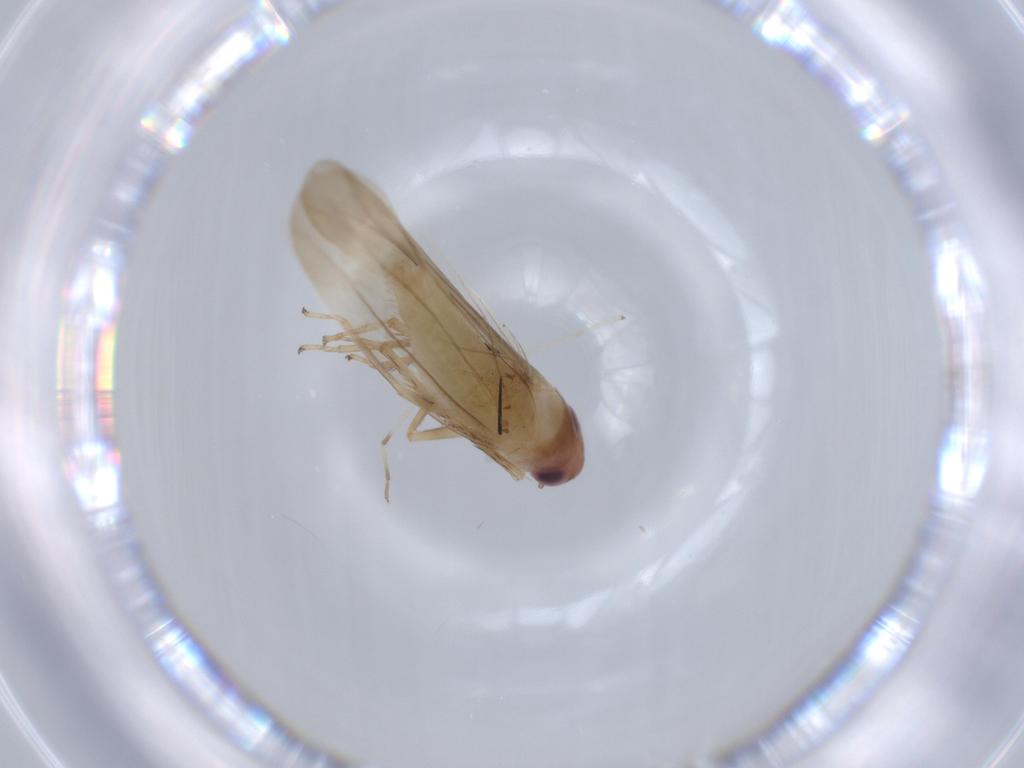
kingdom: Animalia
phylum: Arthropoda
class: Insecta
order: Hemiptera
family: Cicadellidae
